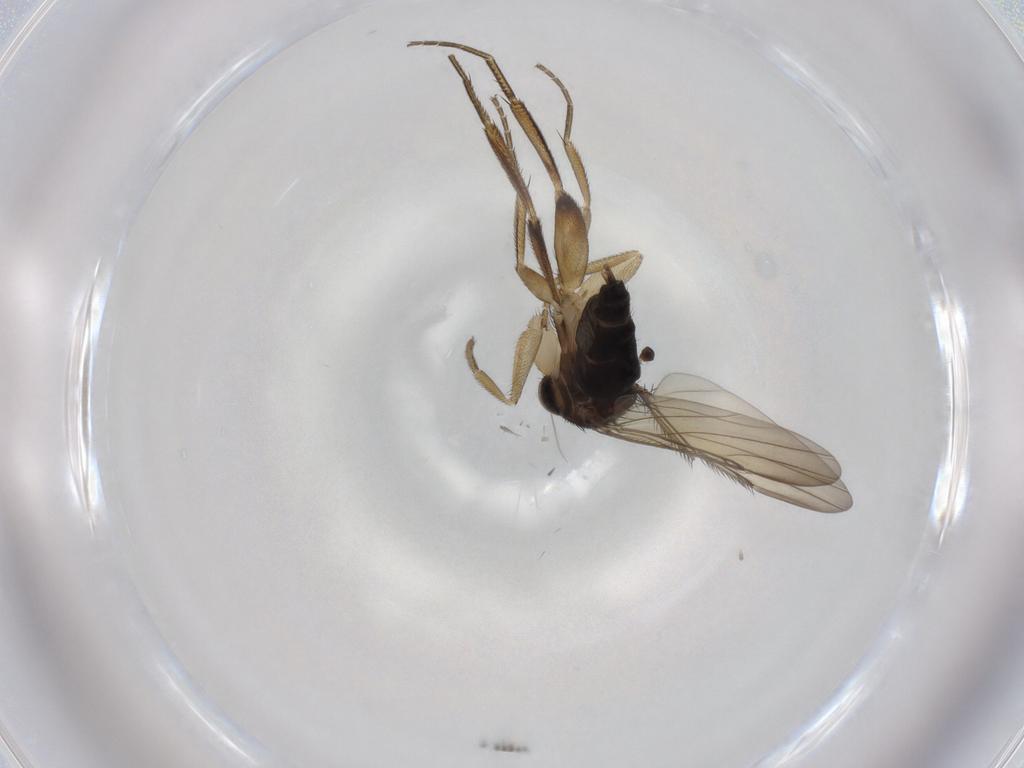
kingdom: Animalia
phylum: Arthropoda
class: Insecta
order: Diptera
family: Phoridae
